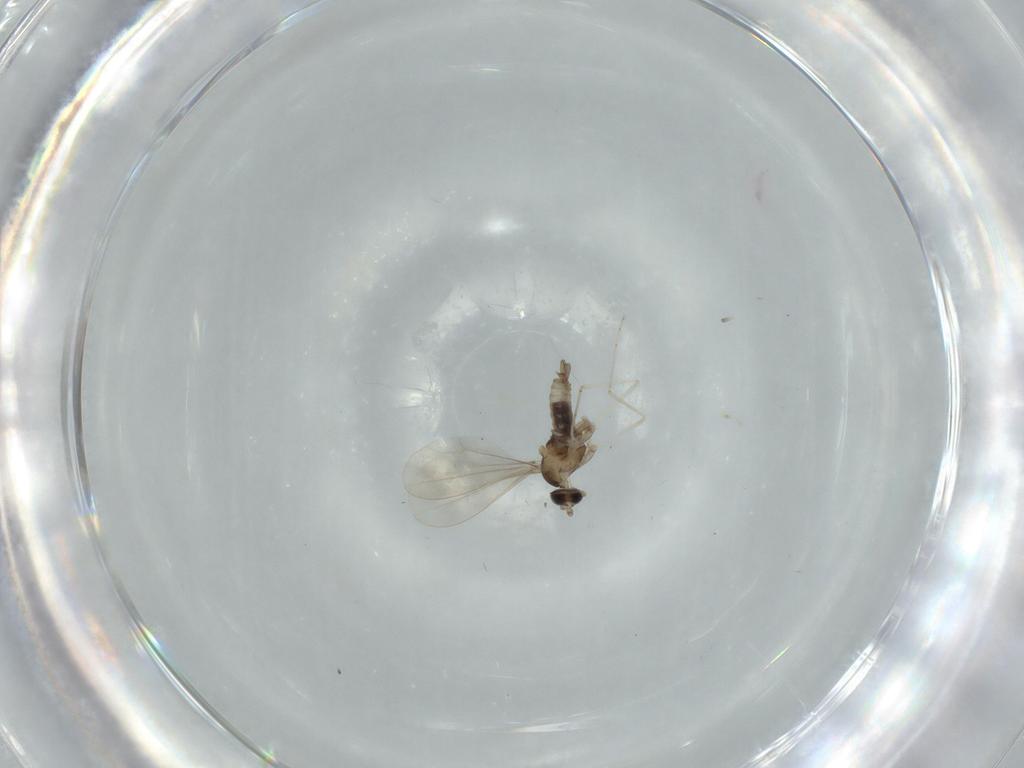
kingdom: Animalia
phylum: Arthropoda
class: Insecta
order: Diptera
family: Cecidomyiidae
